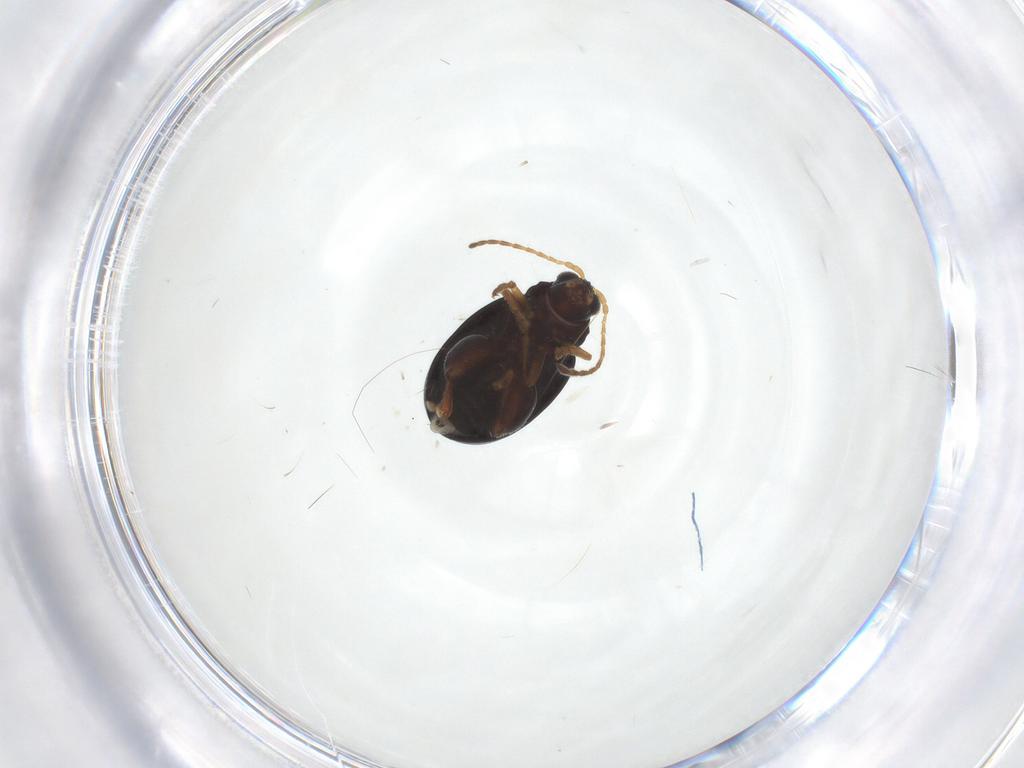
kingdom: Animalia
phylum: Arthropoda
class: Insecta
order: Coleoptera
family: Chrysomelidae
